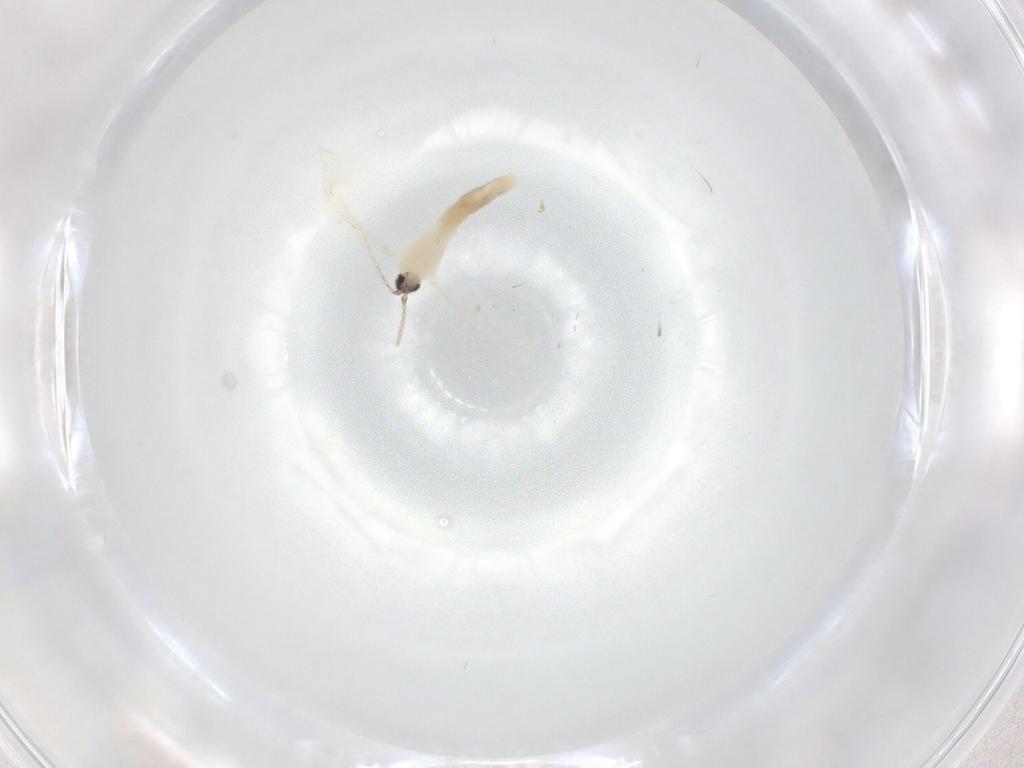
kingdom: Animalia
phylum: Arthropoda
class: Insecta
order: Diptera
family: Cecidomyiidae
